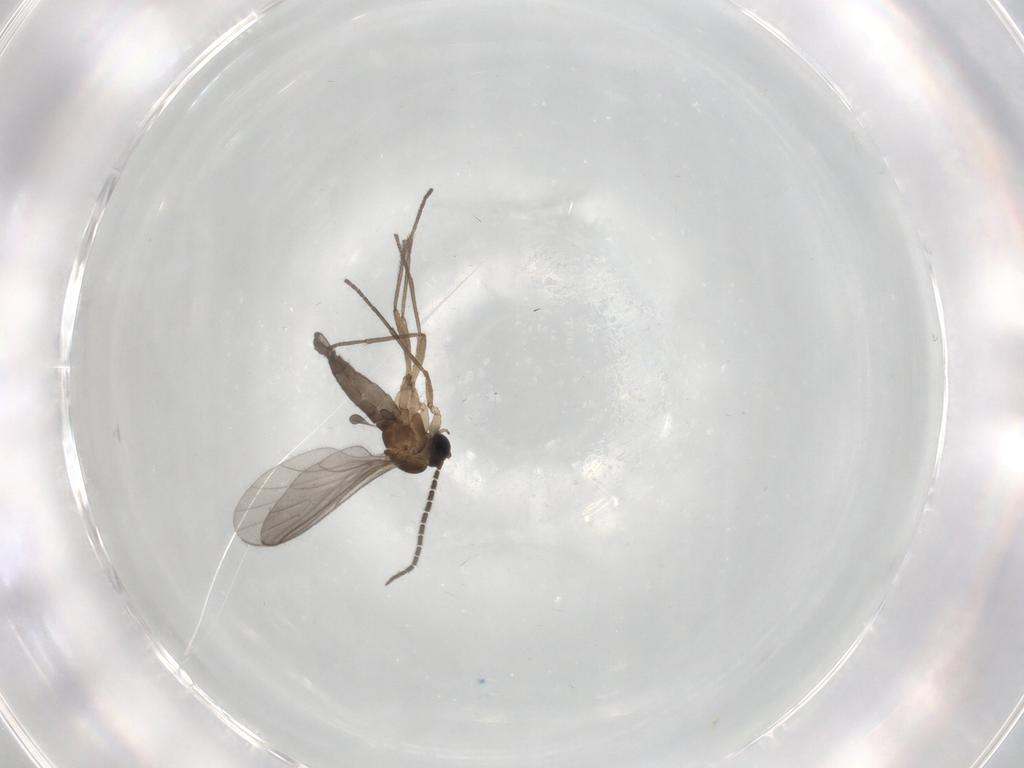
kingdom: Animalia
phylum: Arthropoda
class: Insecta
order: Diptera
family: Sciaridae
